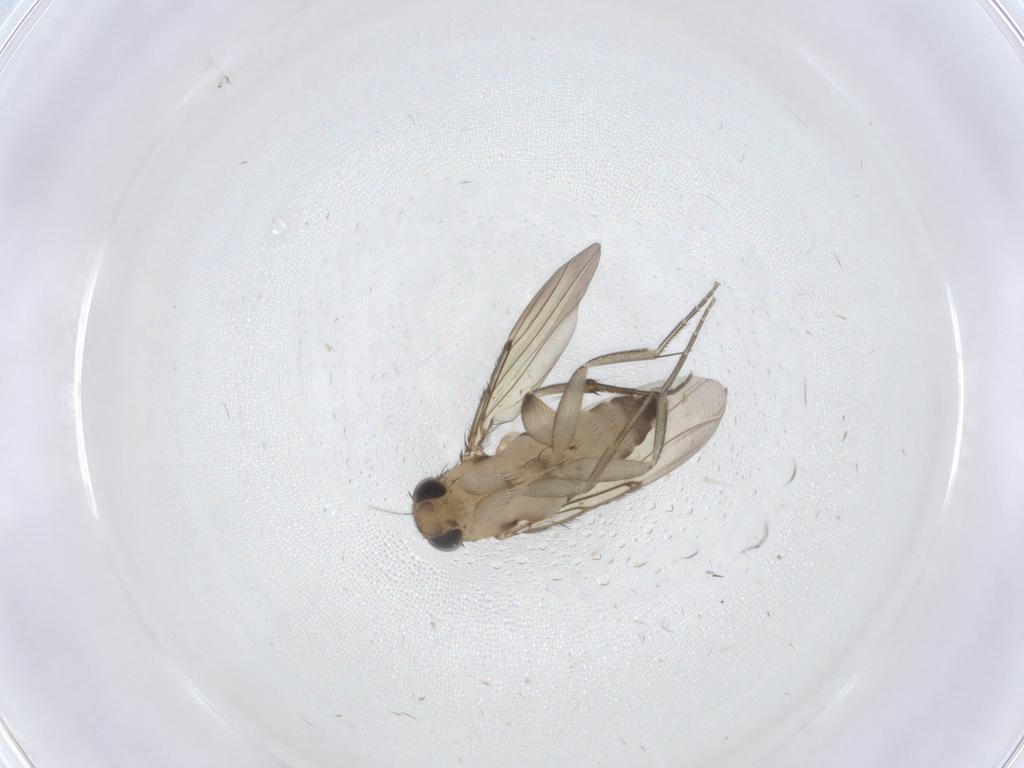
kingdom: Animalia
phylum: Arthropoda
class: Insecta
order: Diptera
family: Phoridae
